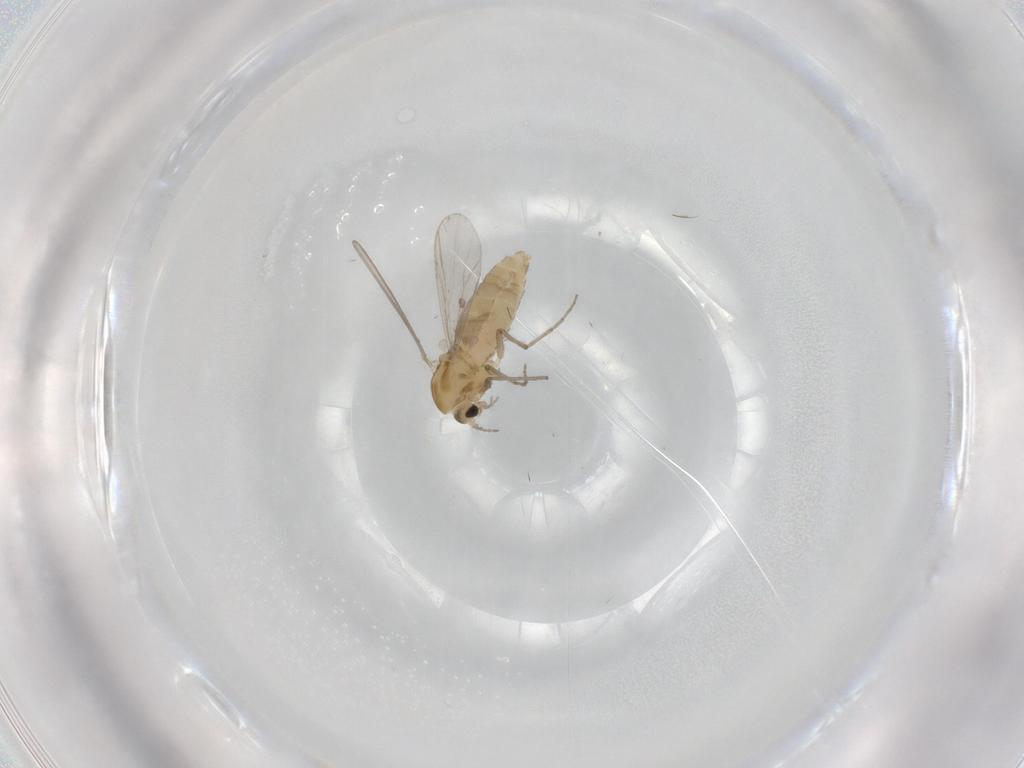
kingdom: Animalia
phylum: Arthropoda
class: Insecta
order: Diptera
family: Chironomidae
